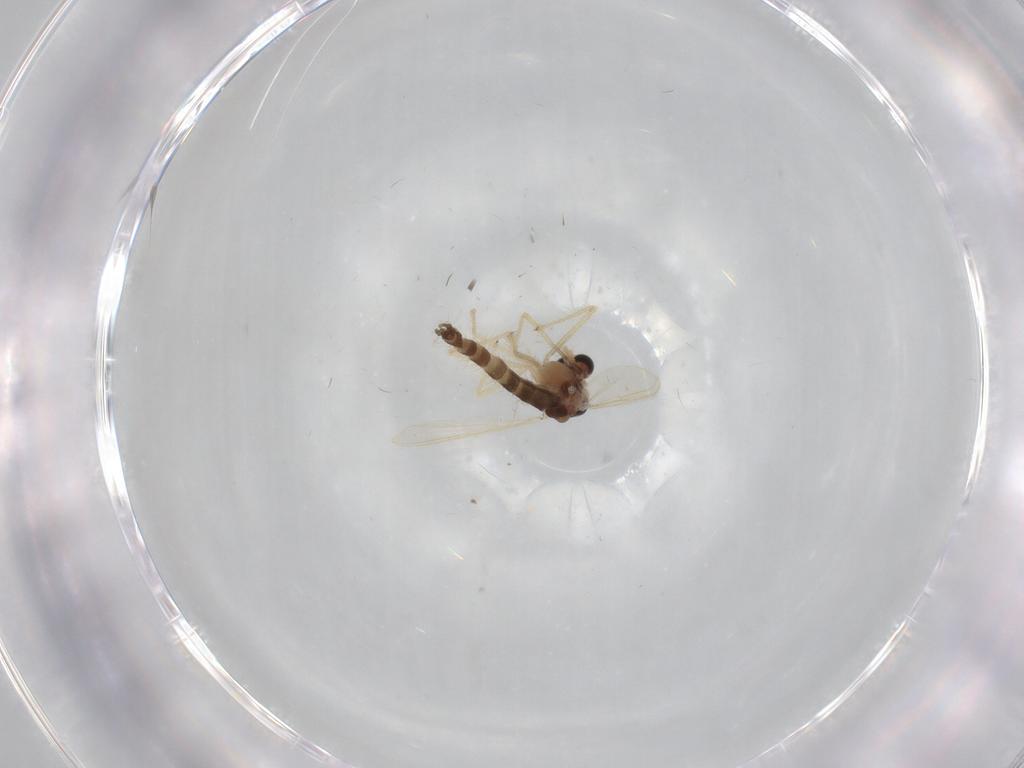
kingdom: Animalia
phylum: Arthropoda
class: Insecta
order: Diptera
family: Chironomidae
